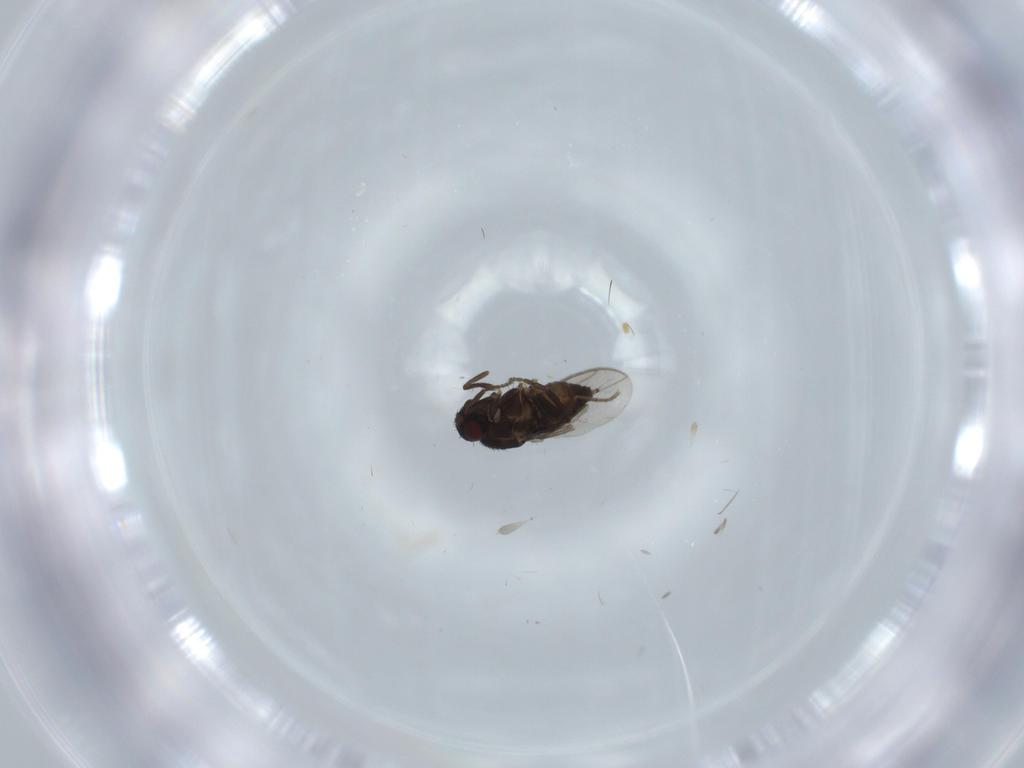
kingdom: Animalia
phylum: Arthropoda
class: Insecta
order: Diptera
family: Sphaeroceridae
